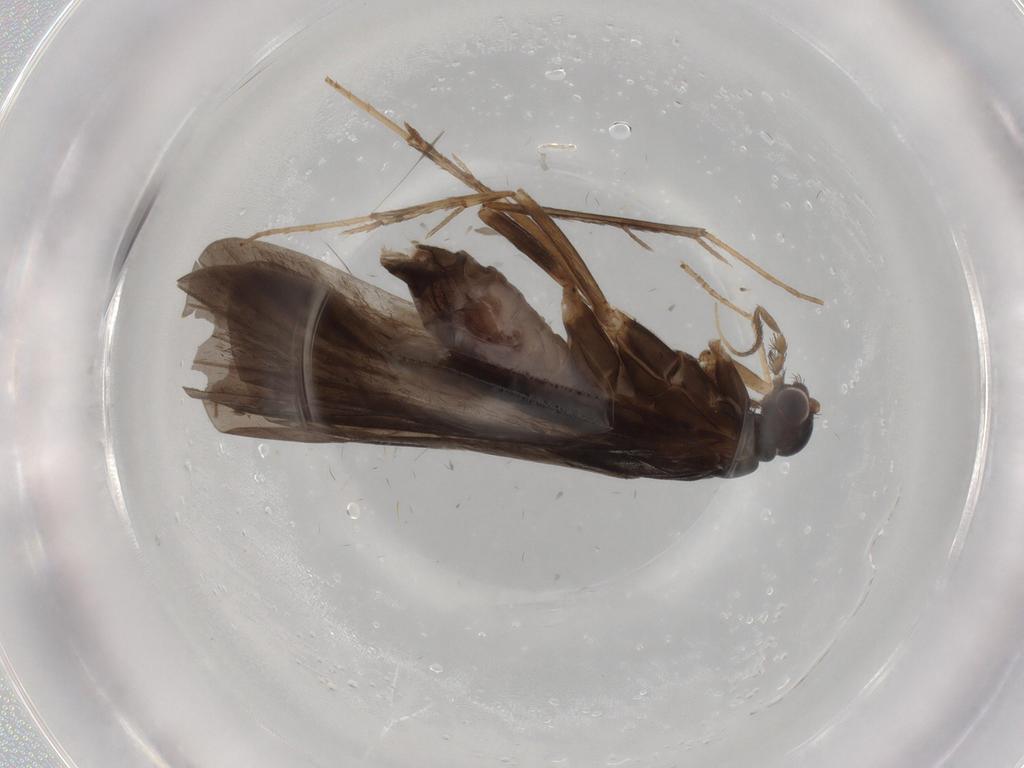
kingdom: Animalia
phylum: Arthropoda
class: Insecta
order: Trichoptera
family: Hydropsychidae
